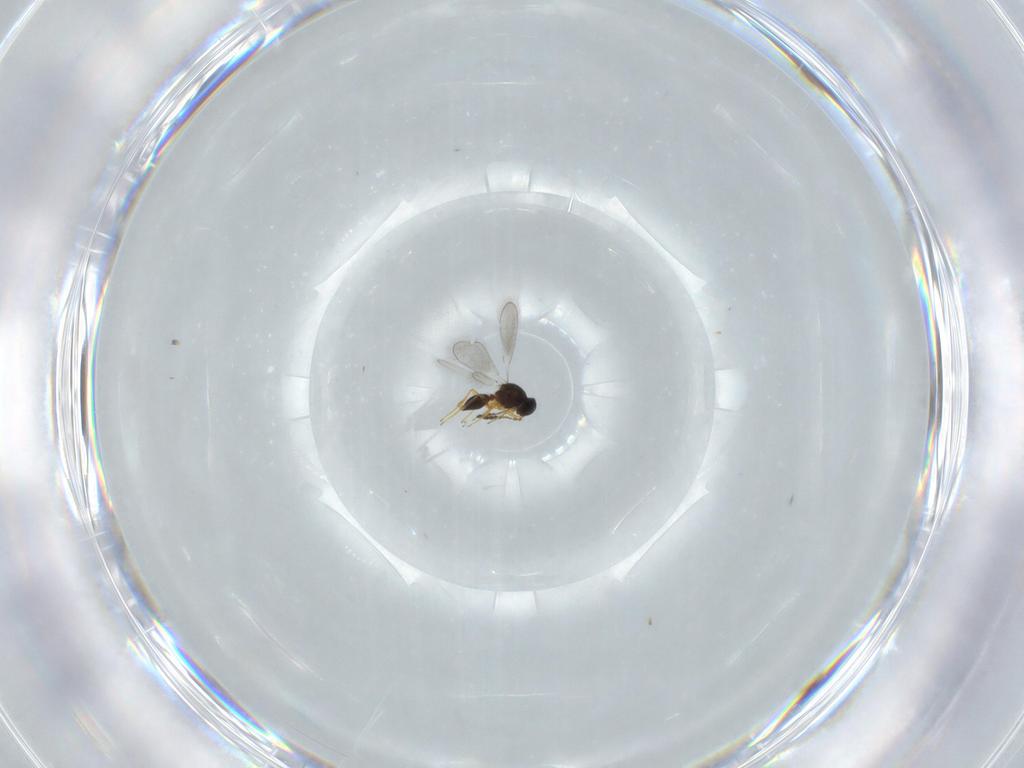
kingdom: Animalia
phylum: Arthropoda
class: Insecta
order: Hymenoptera
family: Platygastridae
